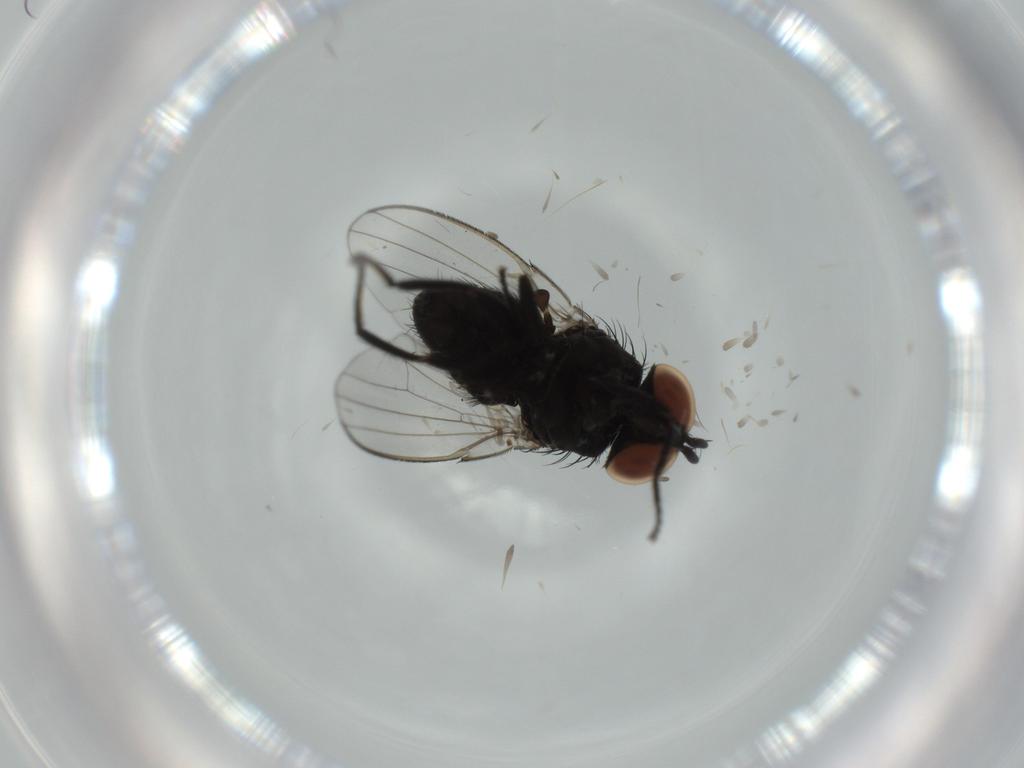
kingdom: Animalia
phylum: Arthropoda
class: Insecta
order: Diptera
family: Milichiidae
